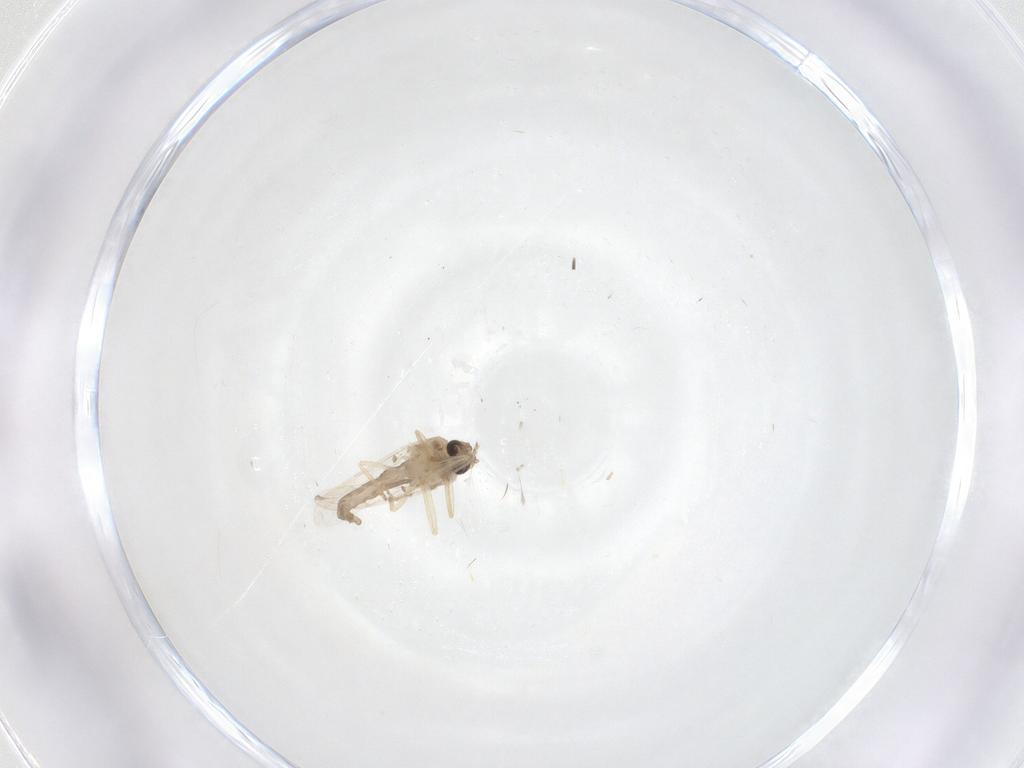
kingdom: Animalia
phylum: Arthropoda
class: Insecta
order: Diptera
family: Ceratopogonidae
